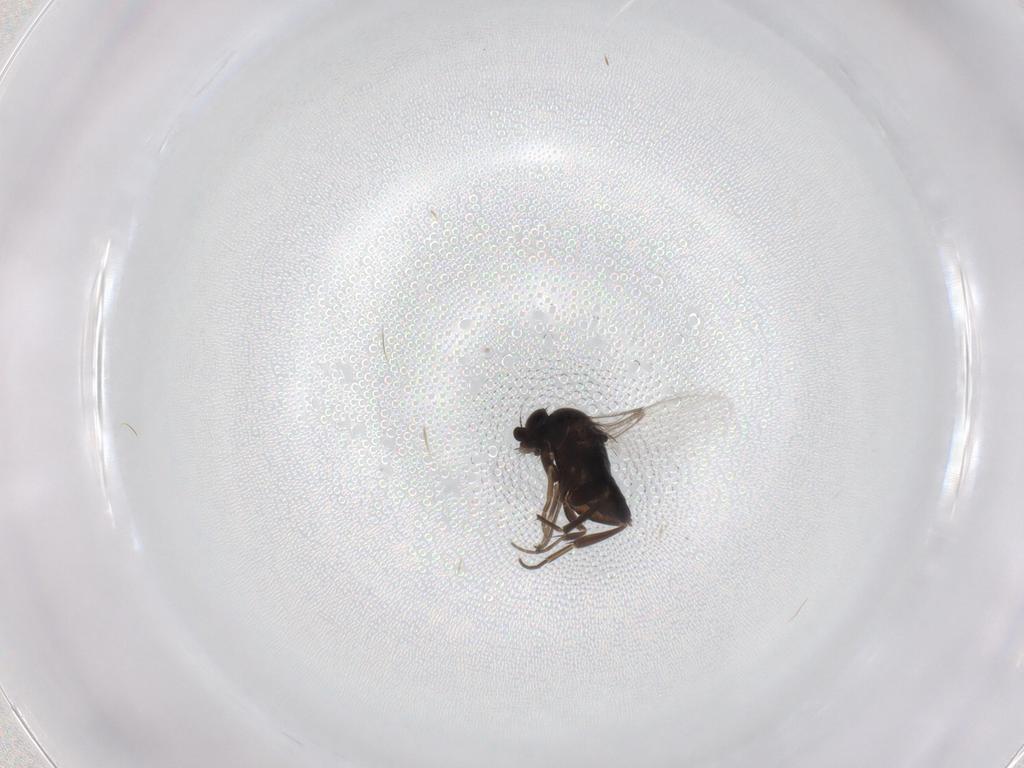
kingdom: Animalia
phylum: Arthropoda
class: Insecta
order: Diptera
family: Phoridae
